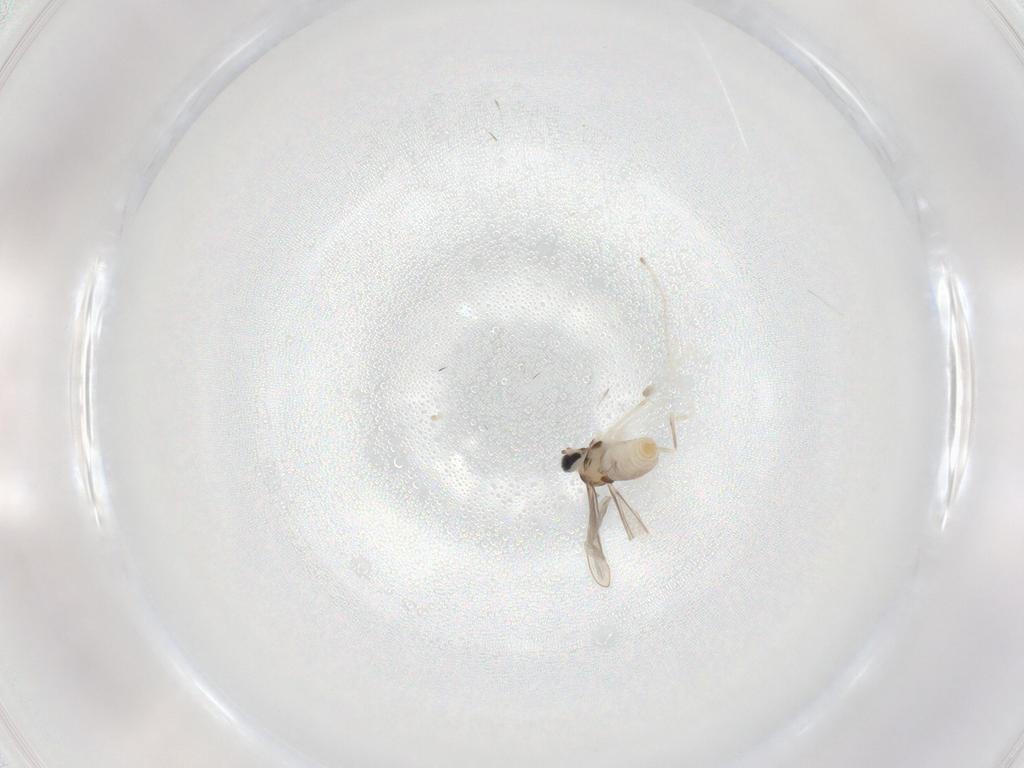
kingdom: Animalia
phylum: Arthropoda
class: Insecta
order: Diptera
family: Cecidomyiidae
